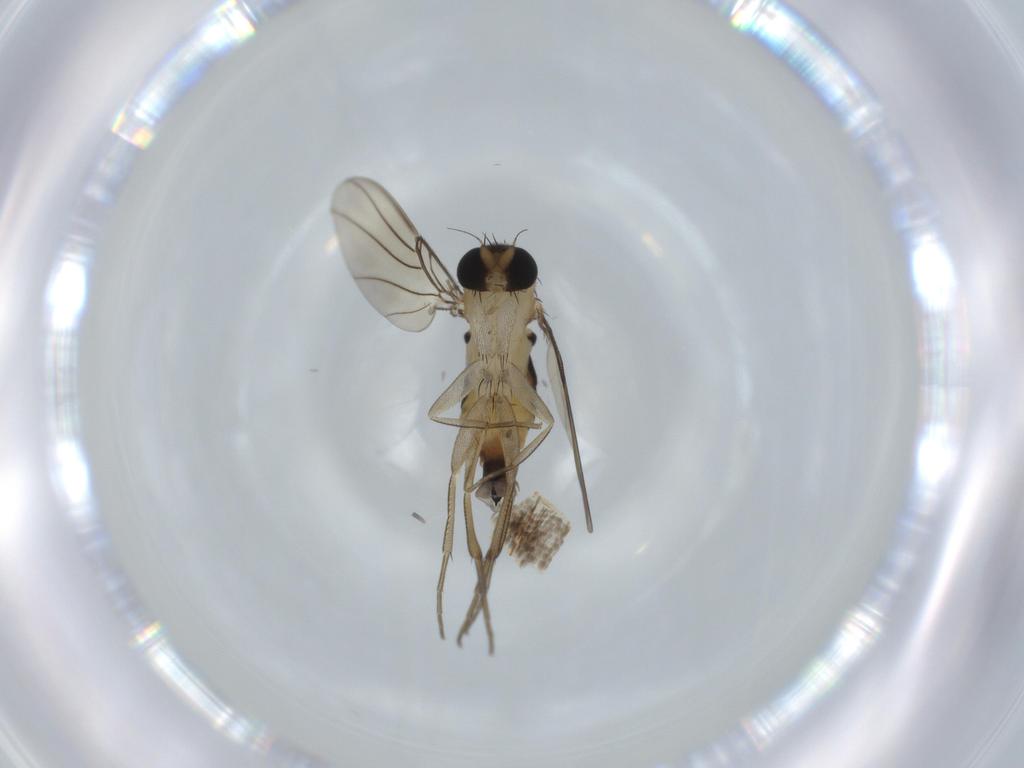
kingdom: Animalia
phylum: Arthropoda
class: Insecta
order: Diptera
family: Phoridae
